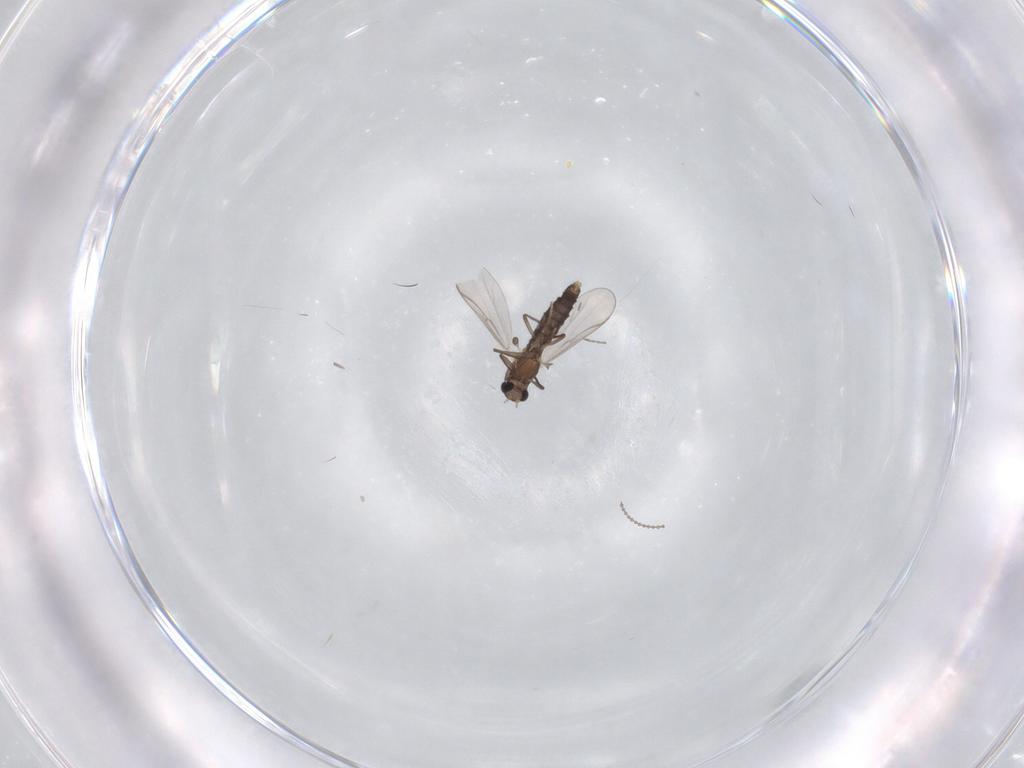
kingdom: Animalia
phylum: Arthropoda
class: Insecta
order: Diptera
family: Chironomidae
